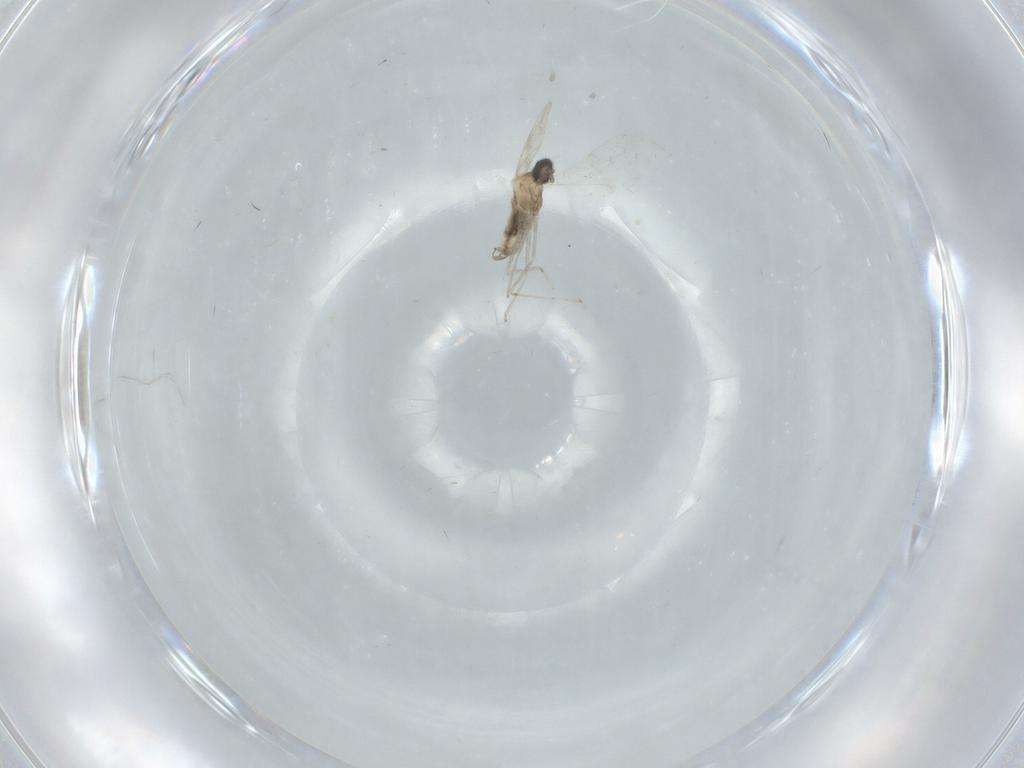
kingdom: Animalia
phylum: Arthropoda
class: Insecta
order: Diptera
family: Cecidomyiidae
